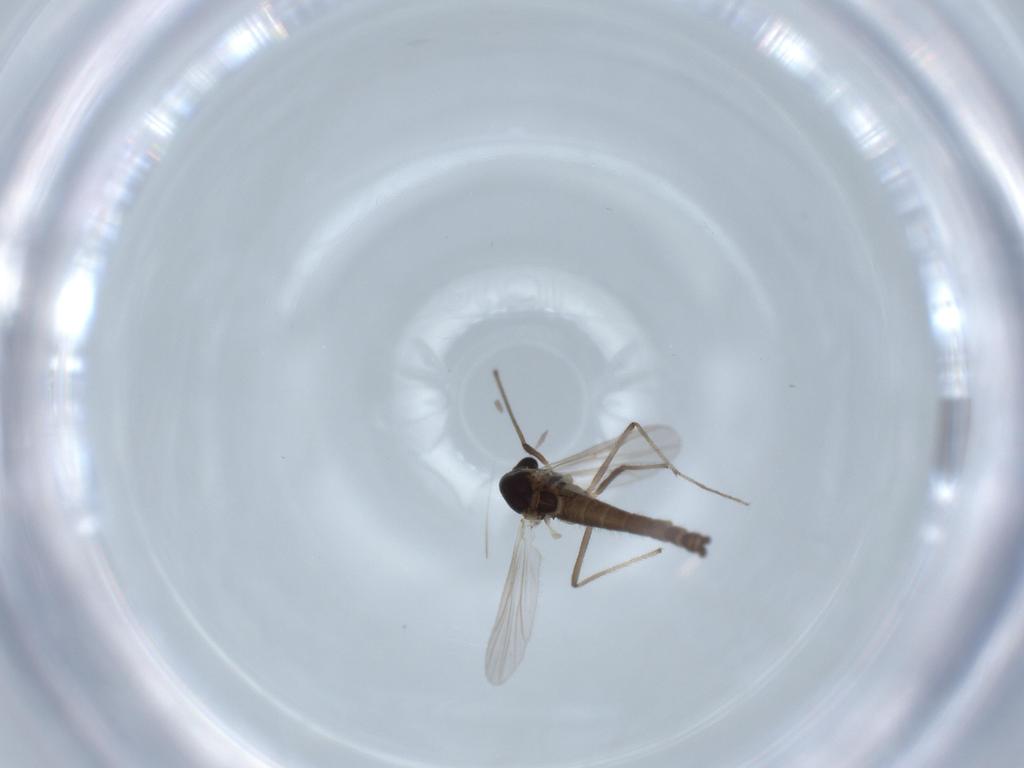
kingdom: Animalia
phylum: Arthropoda
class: Insecta
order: Diptera
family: Chironomidae
